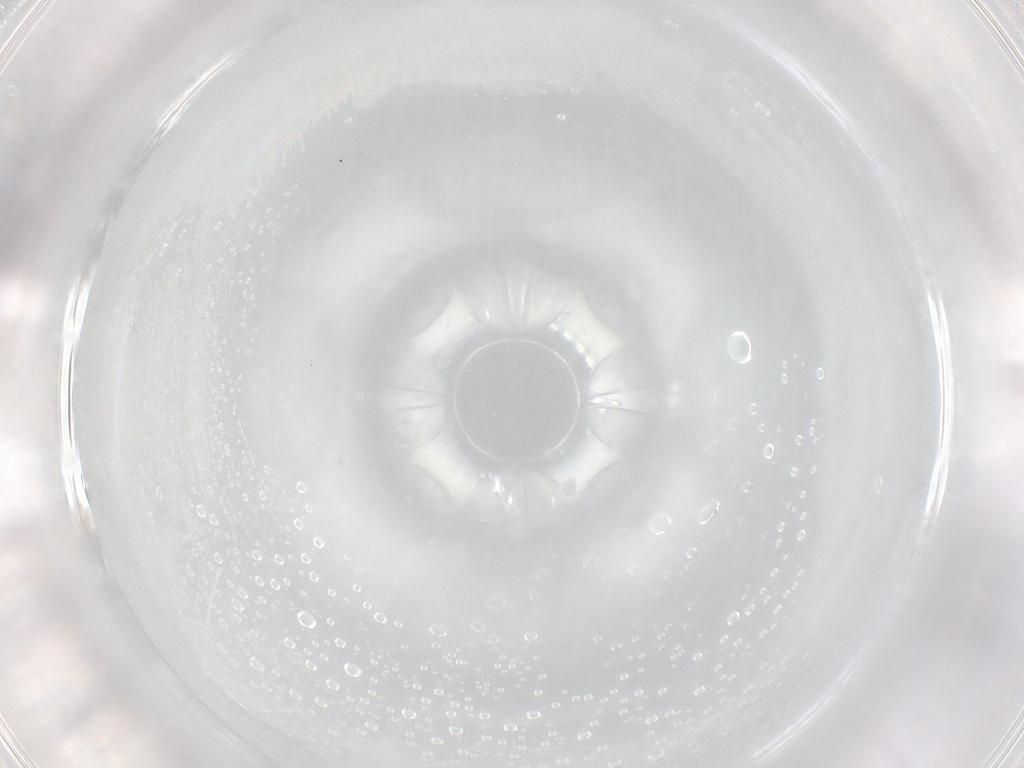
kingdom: Animalia
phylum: Arthropoda
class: Insecta
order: Diptera
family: Cecidomyiidae
